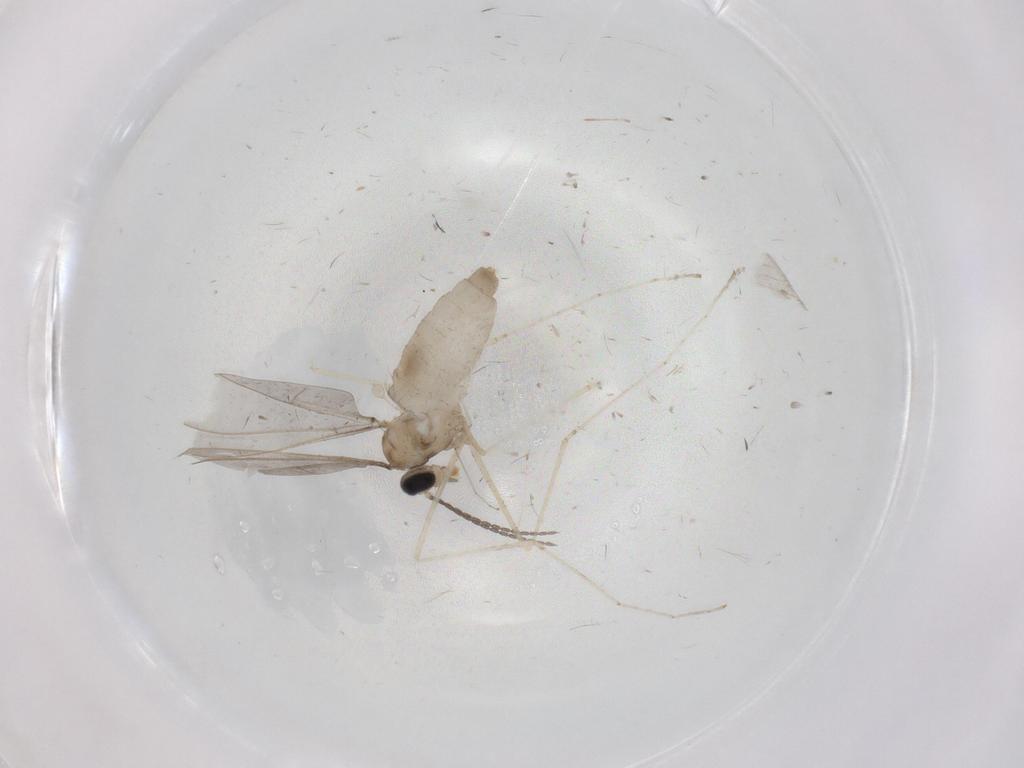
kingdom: Animalia
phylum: Arthropoda
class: Insecta
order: Diptera
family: Cecidomyiidae
